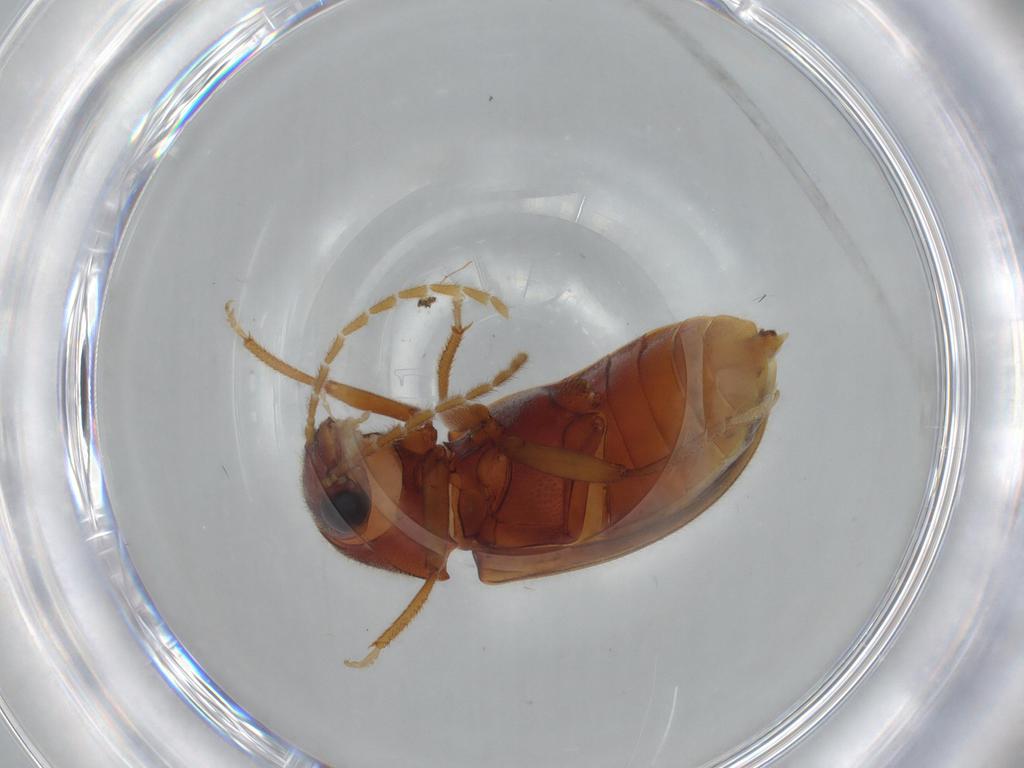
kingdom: Animalia
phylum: Arthropoda
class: Insecta
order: Coleoptera
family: Ptilodactylidae
